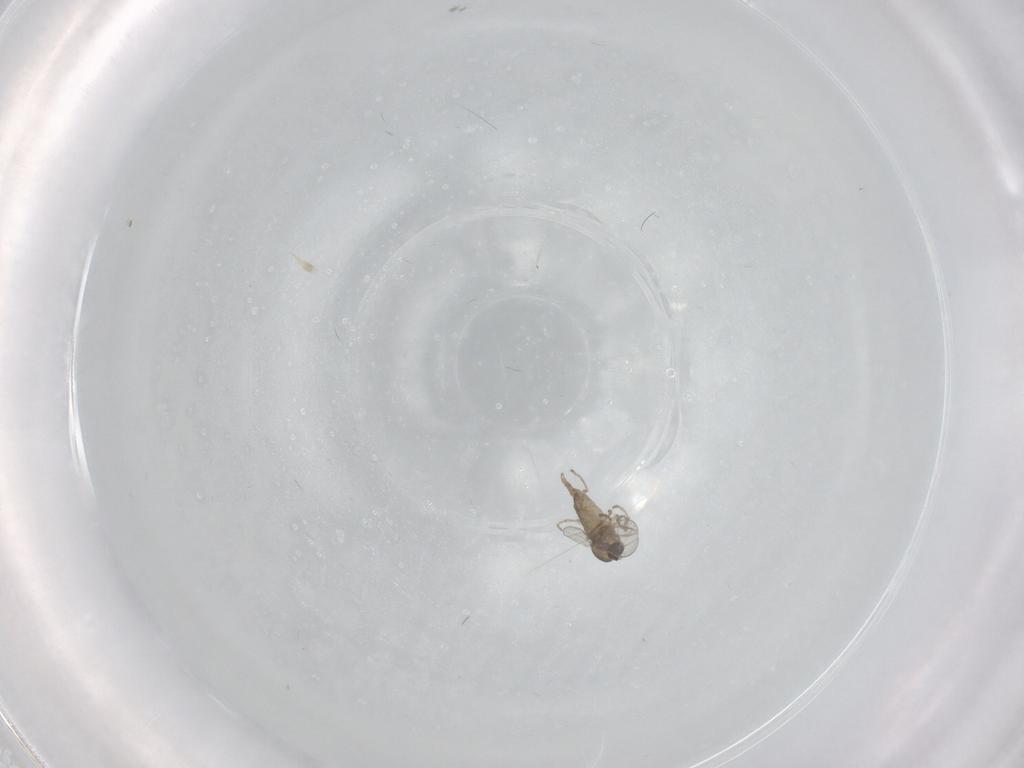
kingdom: Animalia
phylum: Arthropoda
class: Insecta
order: Diptera
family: Cecidomyiidae
